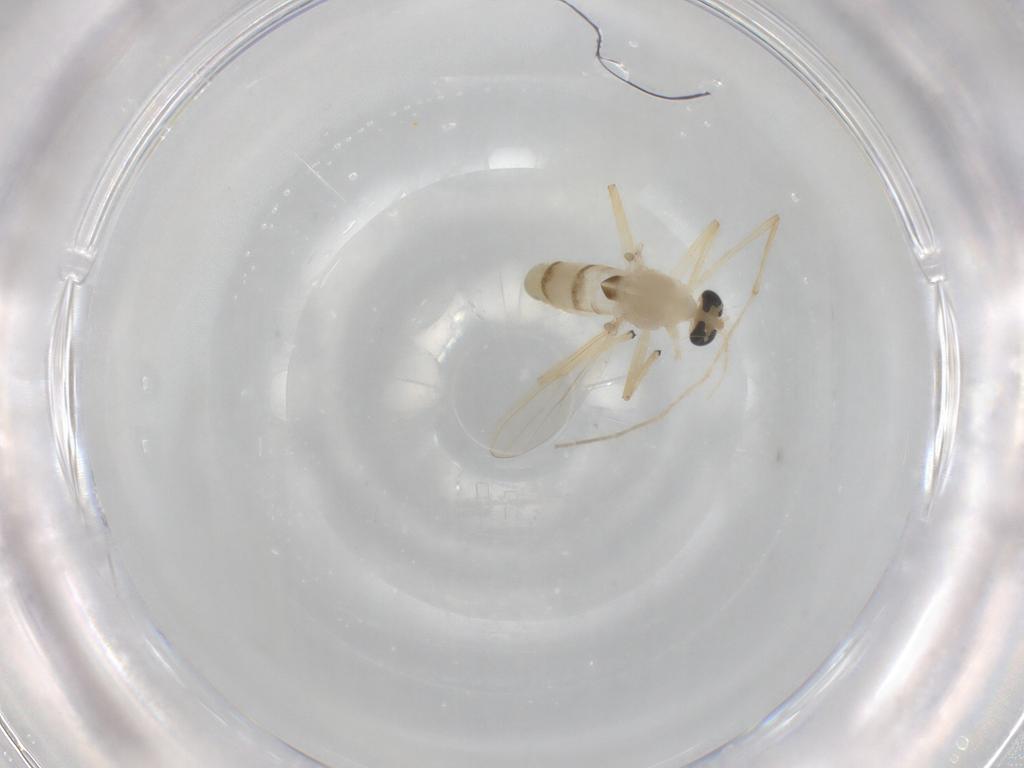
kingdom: Animalia
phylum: Arthropoda
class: Insecta
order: Diptera
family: Chironomidae
